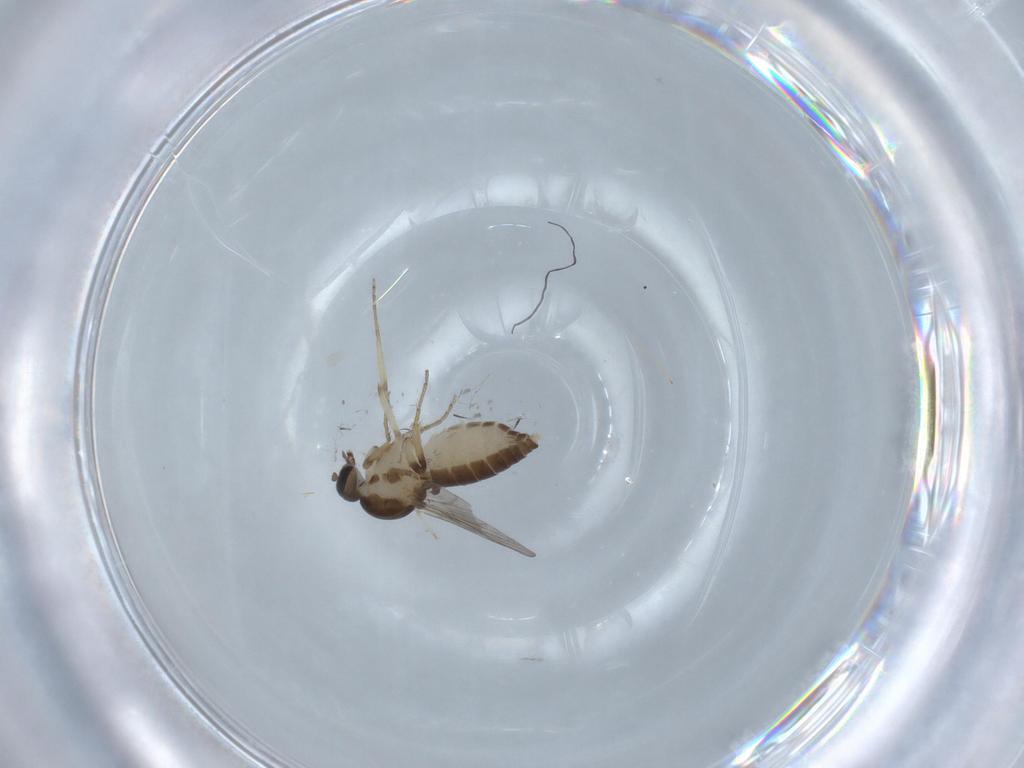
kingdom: Animalia
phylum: Arthropoda
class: Insecta
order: Diptera
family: Ceratopogonidae
